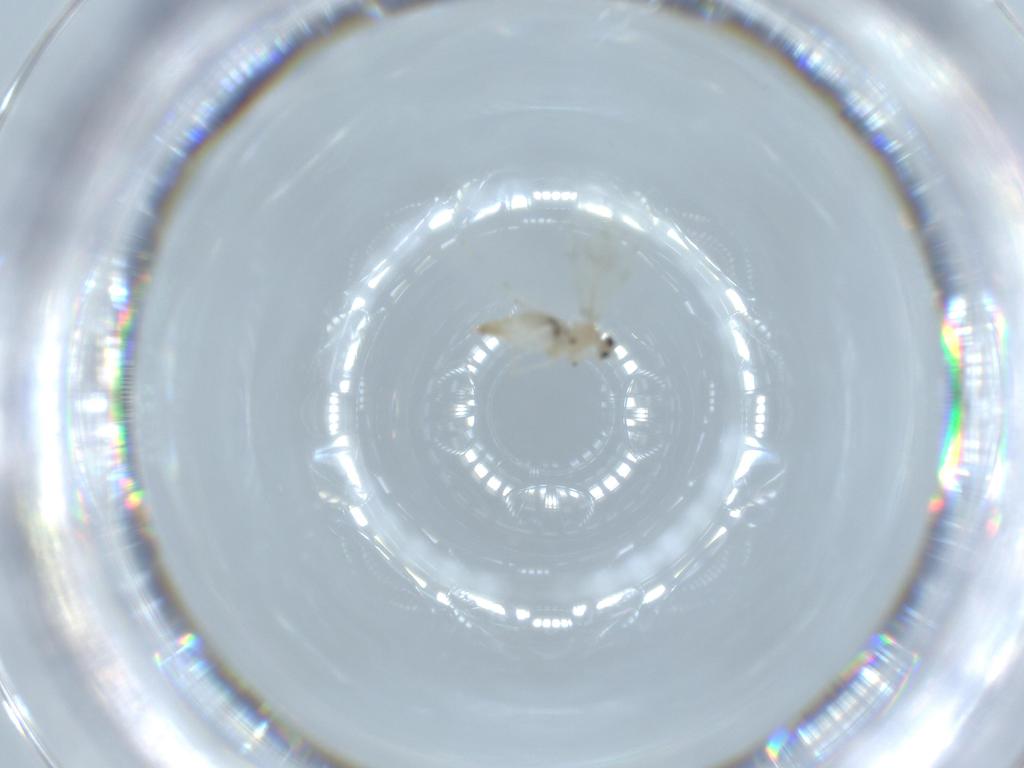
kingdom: Animalia
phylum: Arthropoda
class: Insecta
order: Diptera
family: Cecidomyiidae
